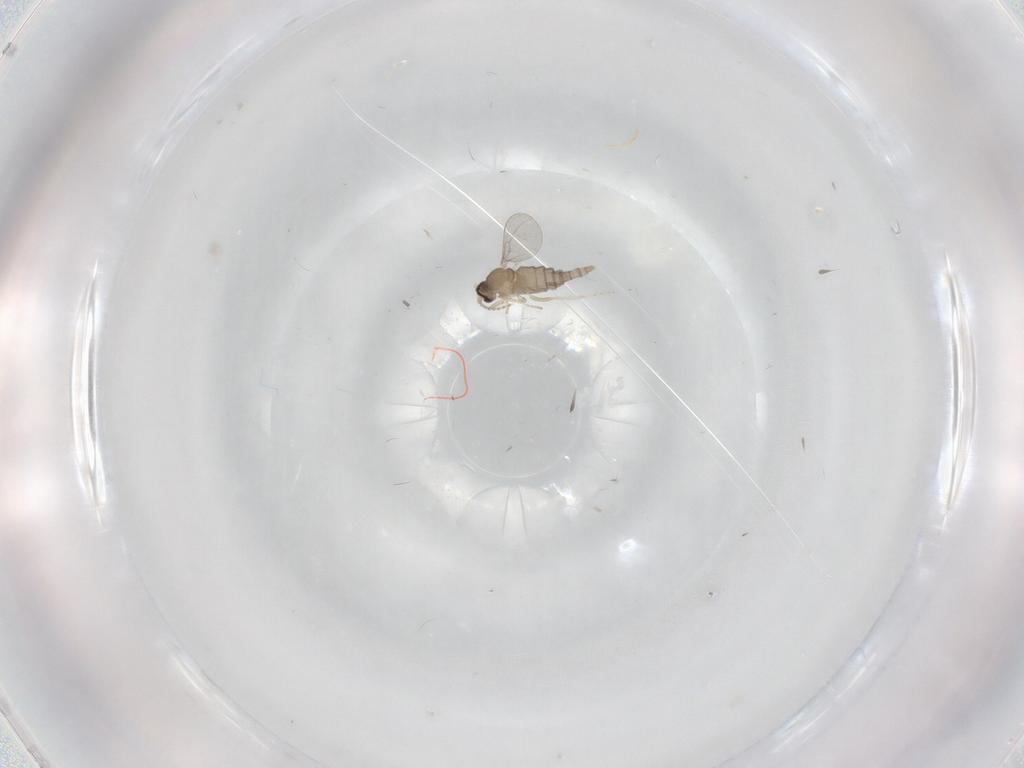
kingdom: Animalia
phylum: Arthropoda
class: Insecta
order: Diptera
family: Cecidomyiidae
